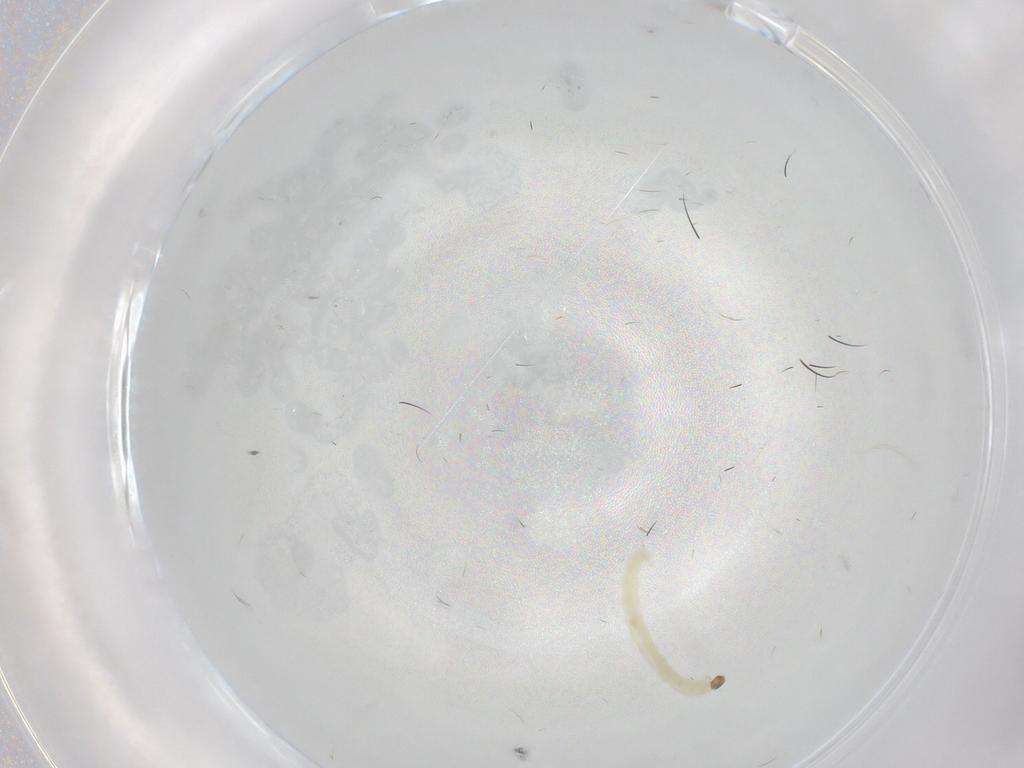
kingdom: Animalia
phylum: Arthropoda
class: Insecta
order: Diptera
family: Chironomidae
